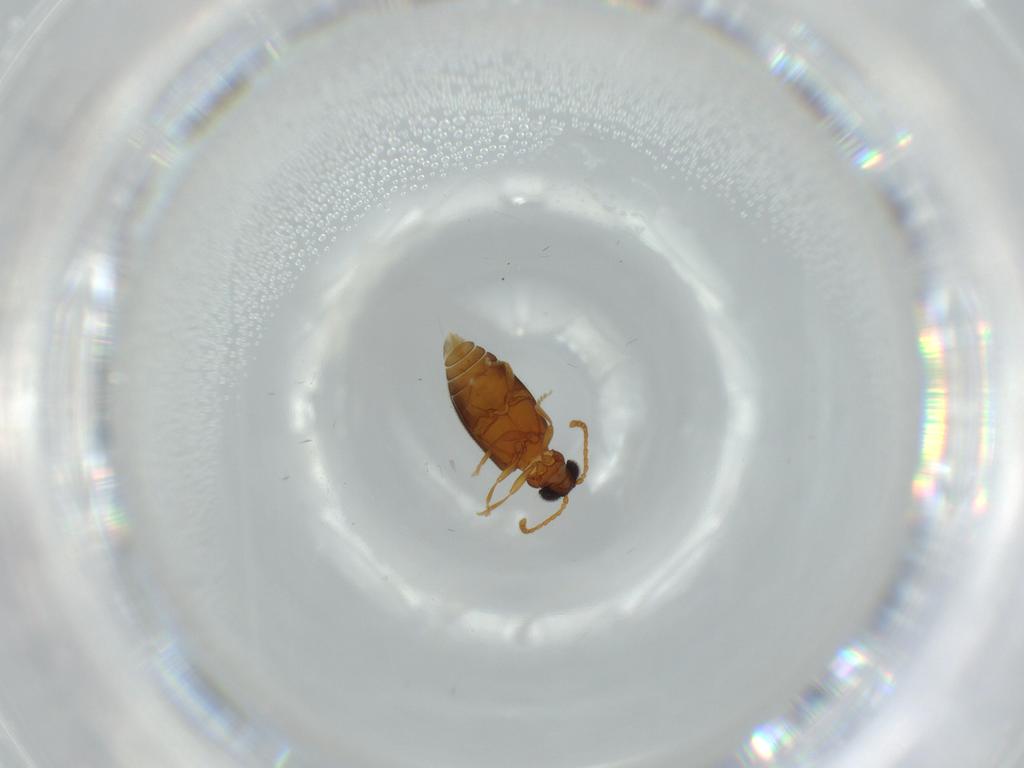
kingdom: Animalia
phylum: Arthropoda
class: Insecta
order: Coleoptera
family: Aderidae
